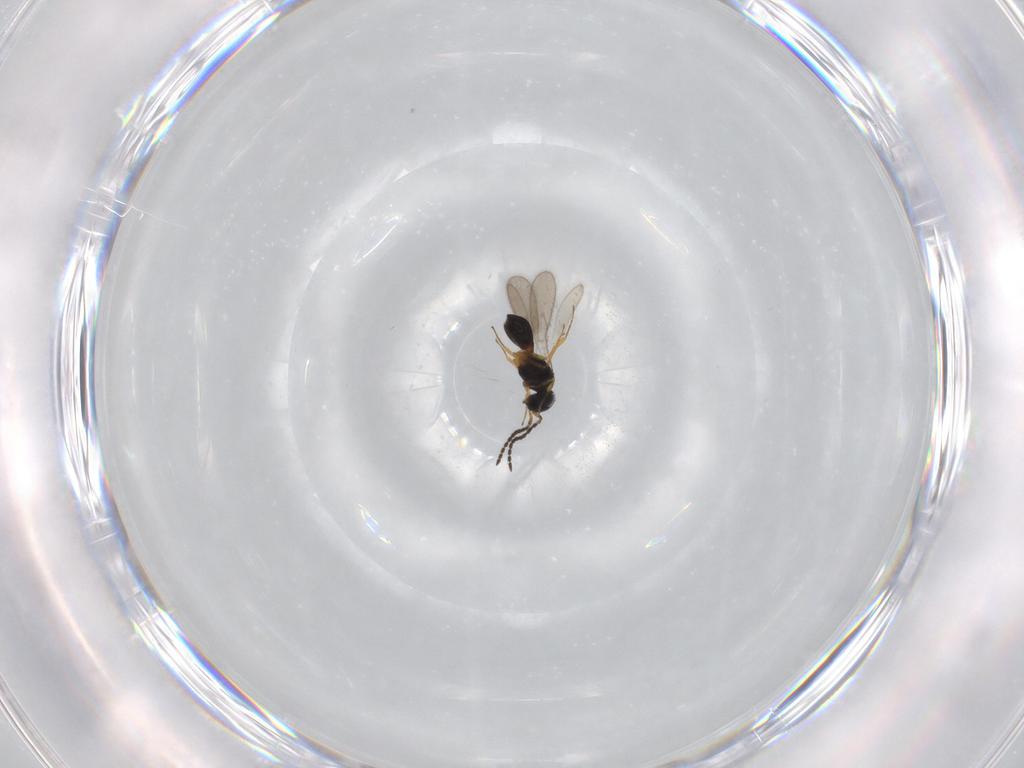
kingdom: Animalia
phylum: Arthropoda
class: Insecta
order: Hymenoptera
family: Scelionidae
